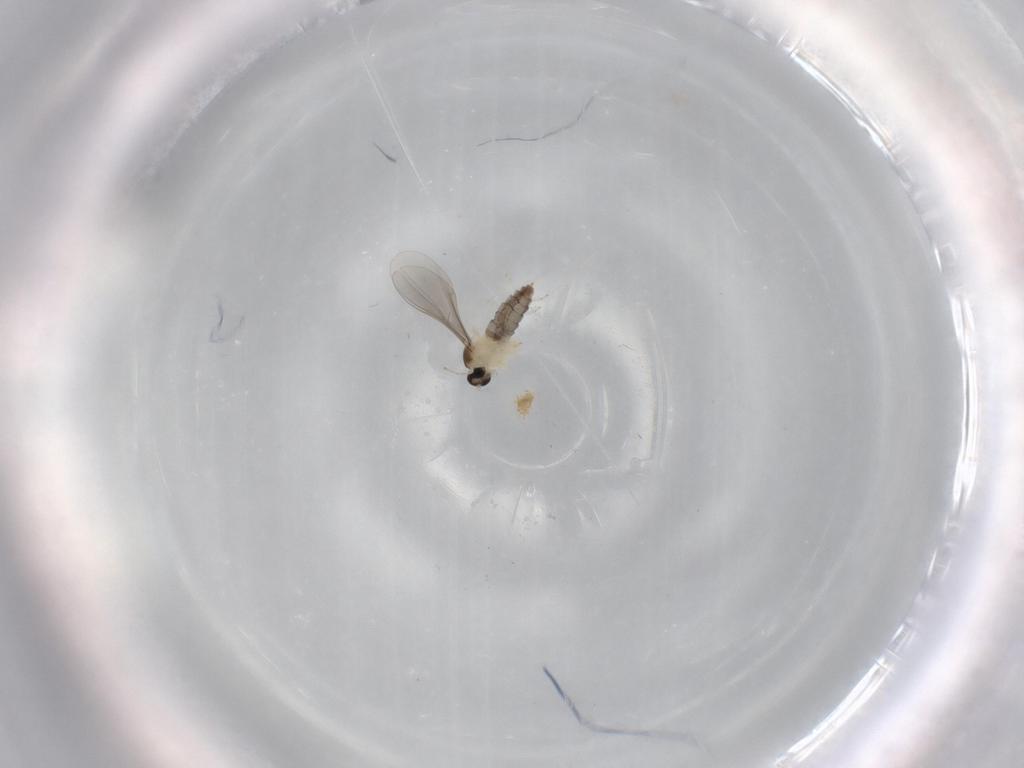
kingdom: Animalia
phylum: Arthropoda
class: Insecta
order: Diptera
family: Cecidomyiidae
